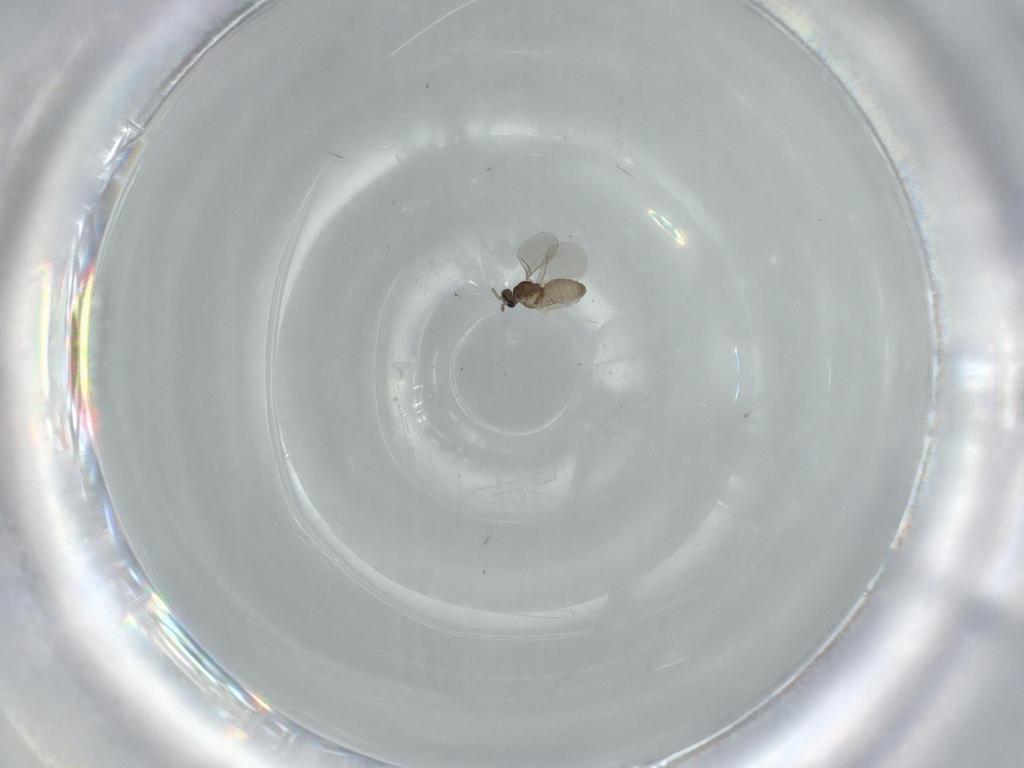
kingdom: Animalia
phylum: Arthropoda
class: Insecta
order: Diptera
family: Cecidomyiidae
